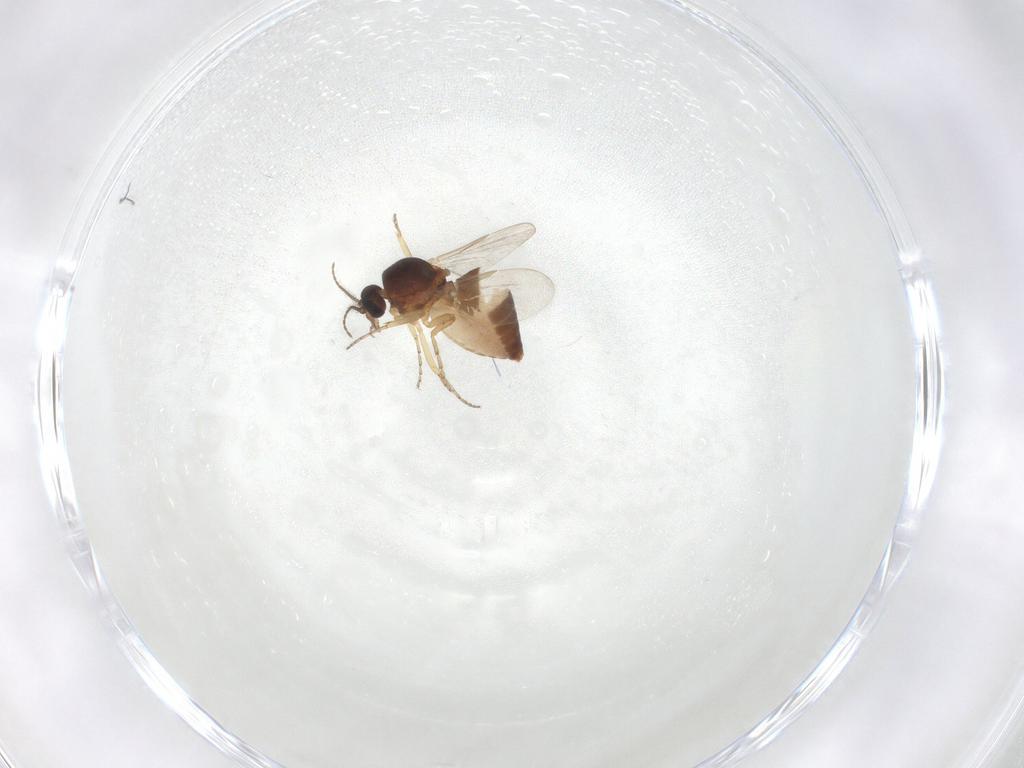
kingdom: Animalia
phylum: Arthropoda
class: Insecta
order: Diptera
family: Ceratopogonidae
